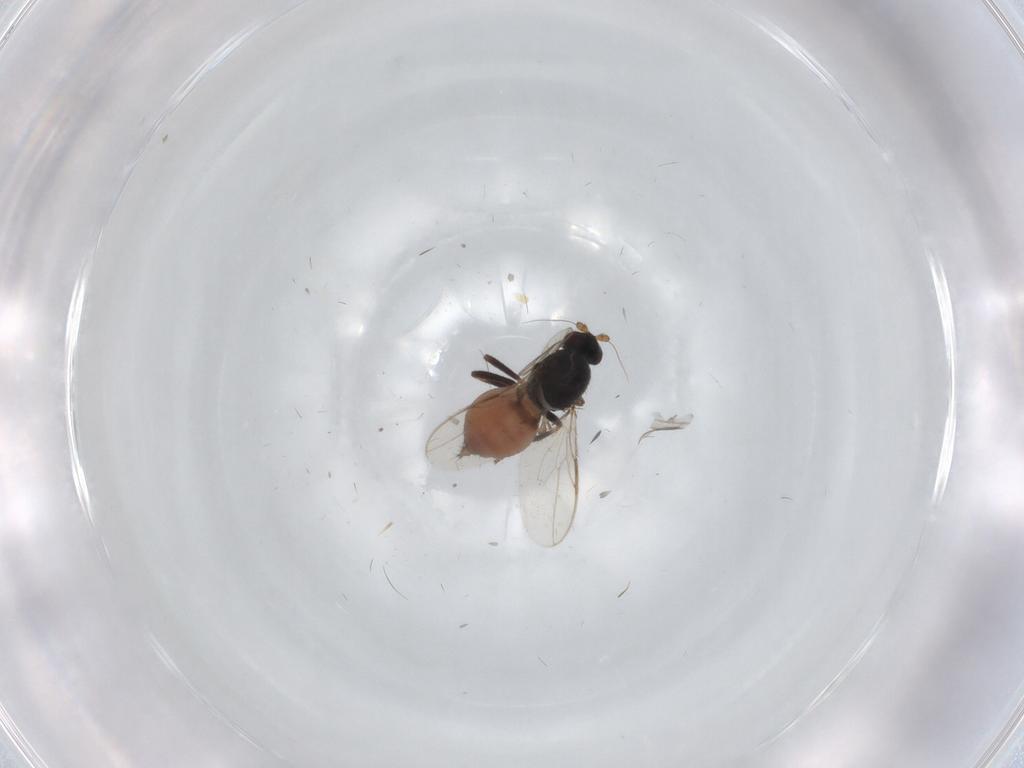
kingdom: Animalia
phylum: Arthropoda
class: Insecta
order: Diptera
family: Sphaeroceridae
